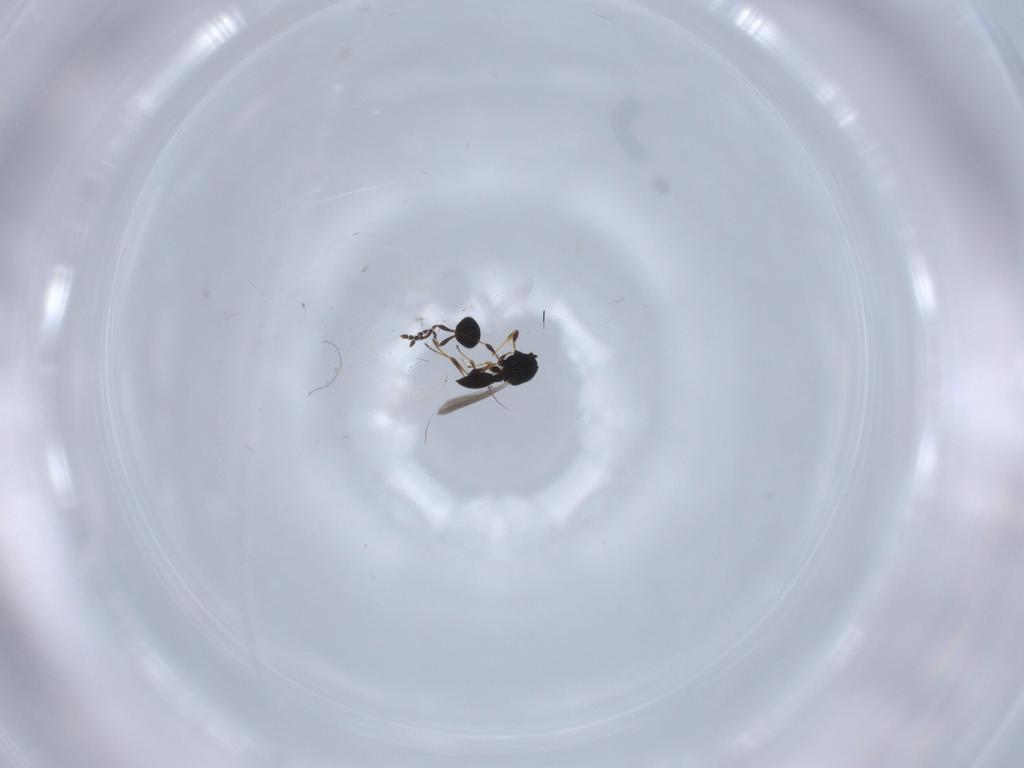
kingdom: Animalia
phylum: Arthropoda
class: Insecta
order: Hymenoptera
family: Platygastridae
